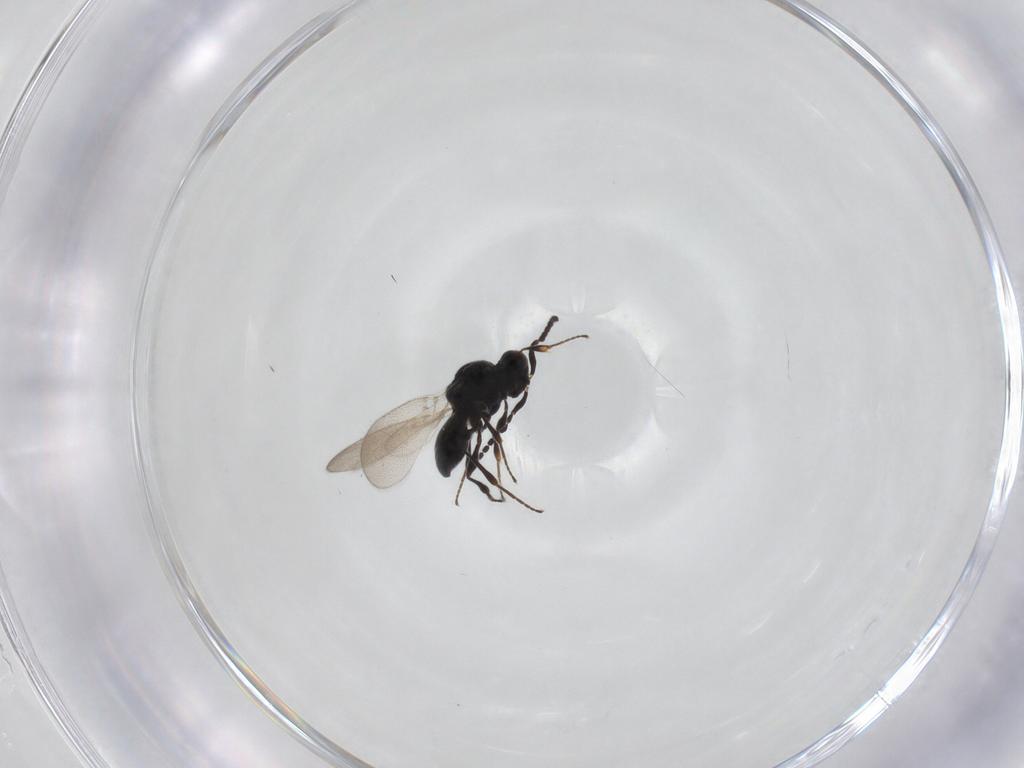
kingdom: Animalia
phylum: Arthropoda
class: Insecta
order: Hymenoptera
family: Platygastridae
